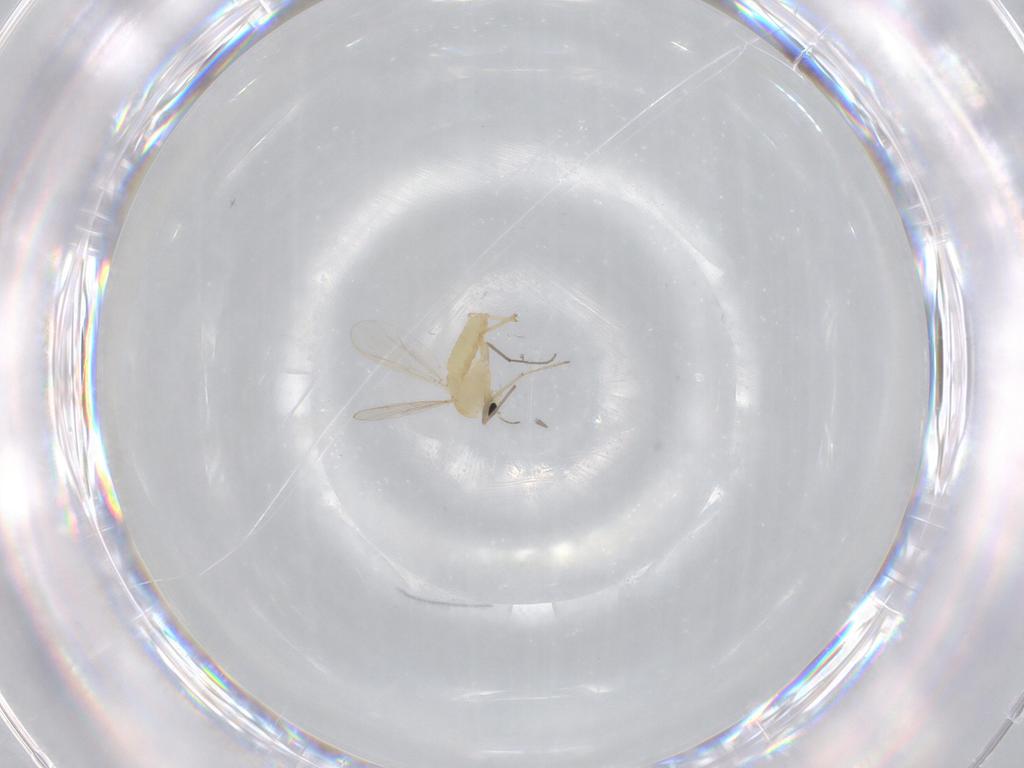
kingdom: Animalia
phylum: Arthropoda
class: Insecta
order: Diptera
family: Chironomidae
